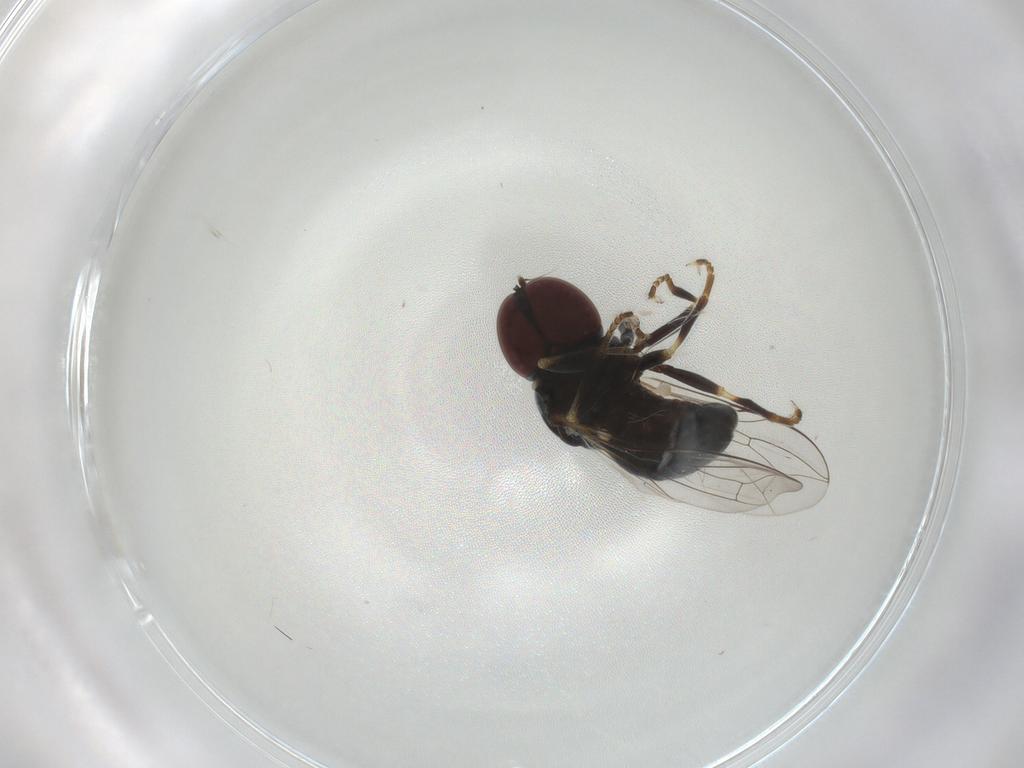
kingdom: Animalia
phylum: Arthropoda
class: Insecta
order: Diptera
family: Pipunculidae
